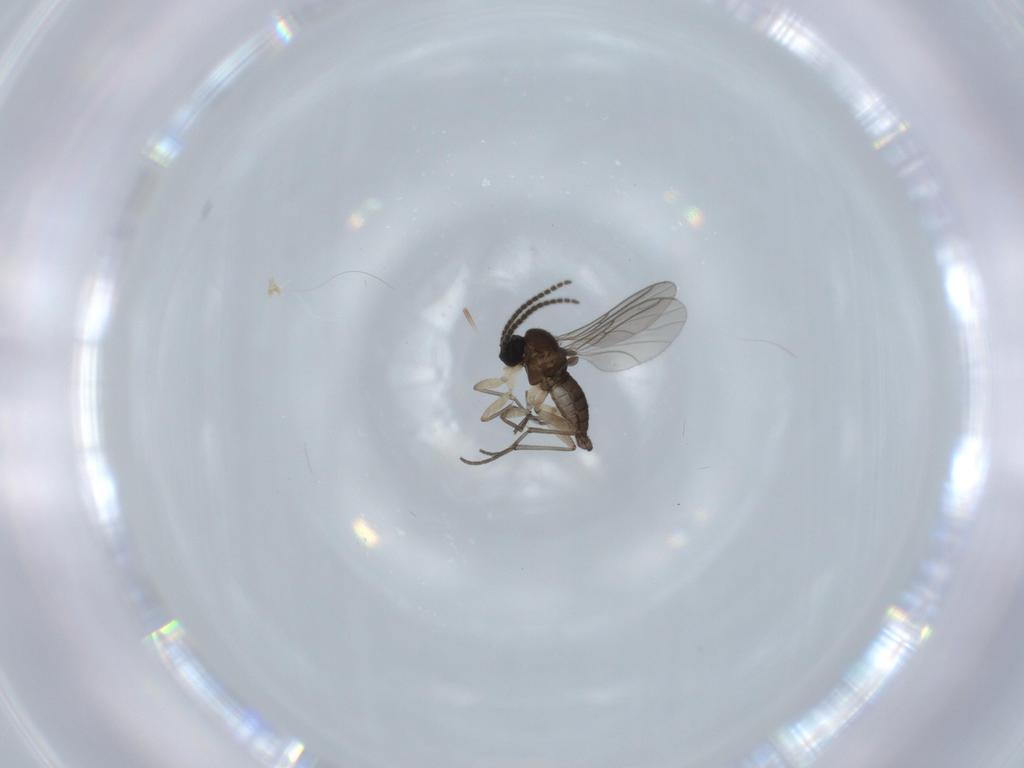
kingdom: Animalia
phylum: Arthropoda
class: Insecta
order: Diptera
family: Sciaridae
